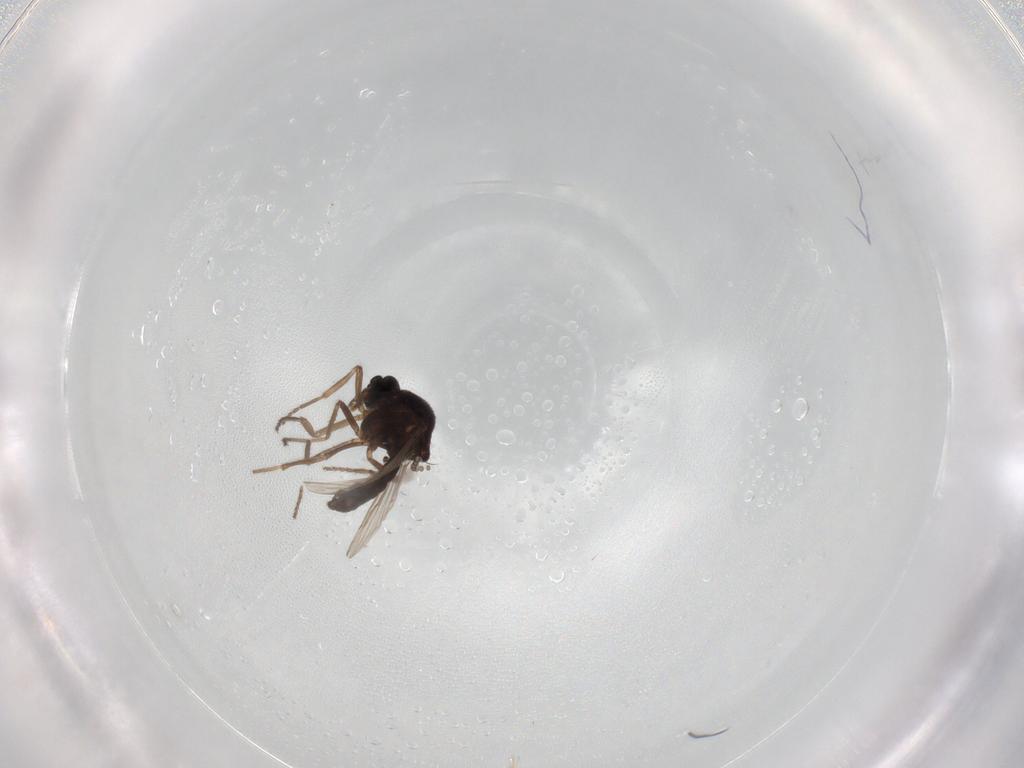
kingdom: Animalia
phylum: Arthropoda
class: Insecta
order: Diptera
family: Ceratopogonidae
